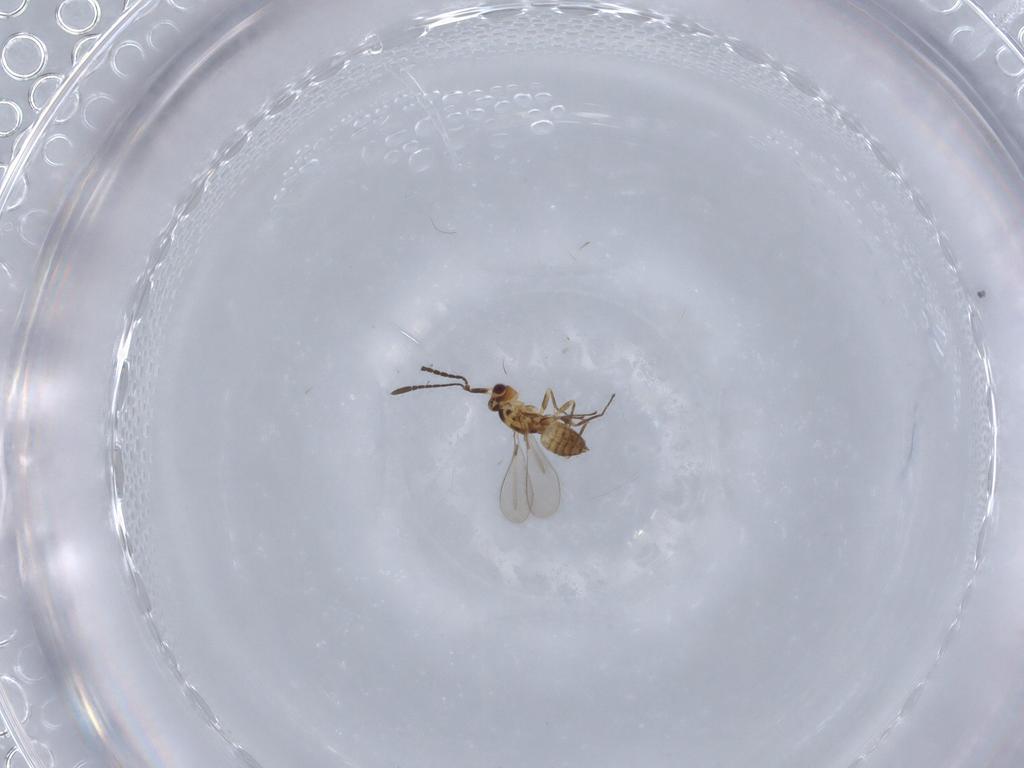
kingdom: Animalia
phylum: Arthropoda
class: Insecta
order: Hymenoptera
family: Mymaridae
